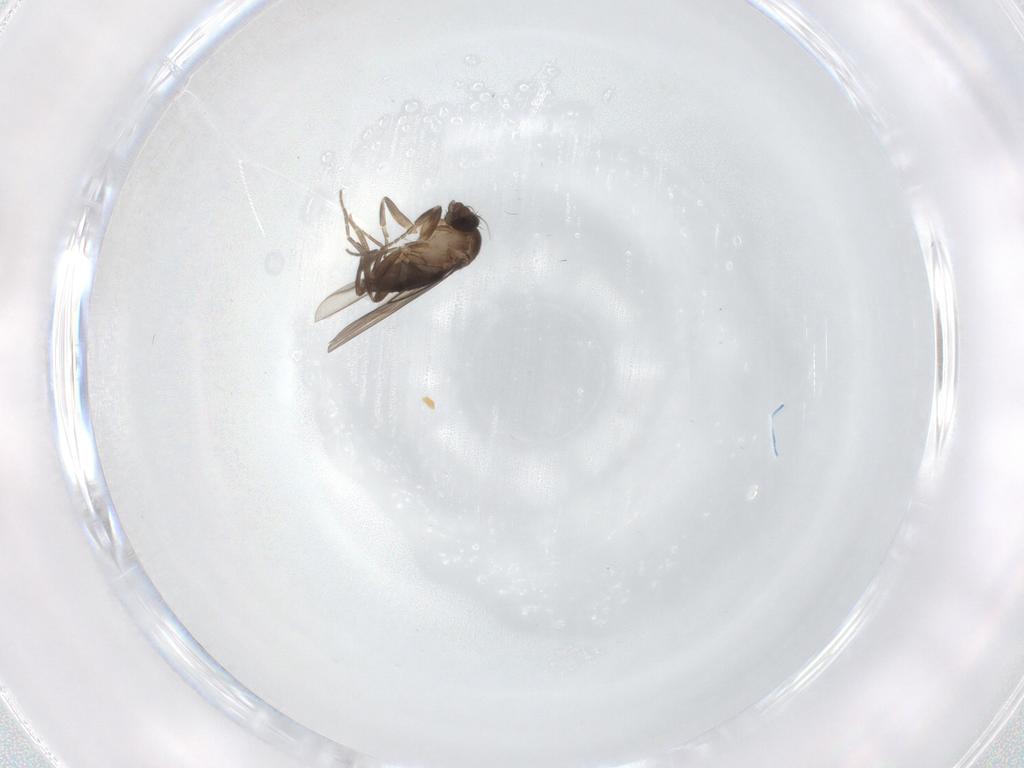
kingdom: Animalia
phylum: Arthropoda
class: Insecta
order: Diptera
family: Phoridae
